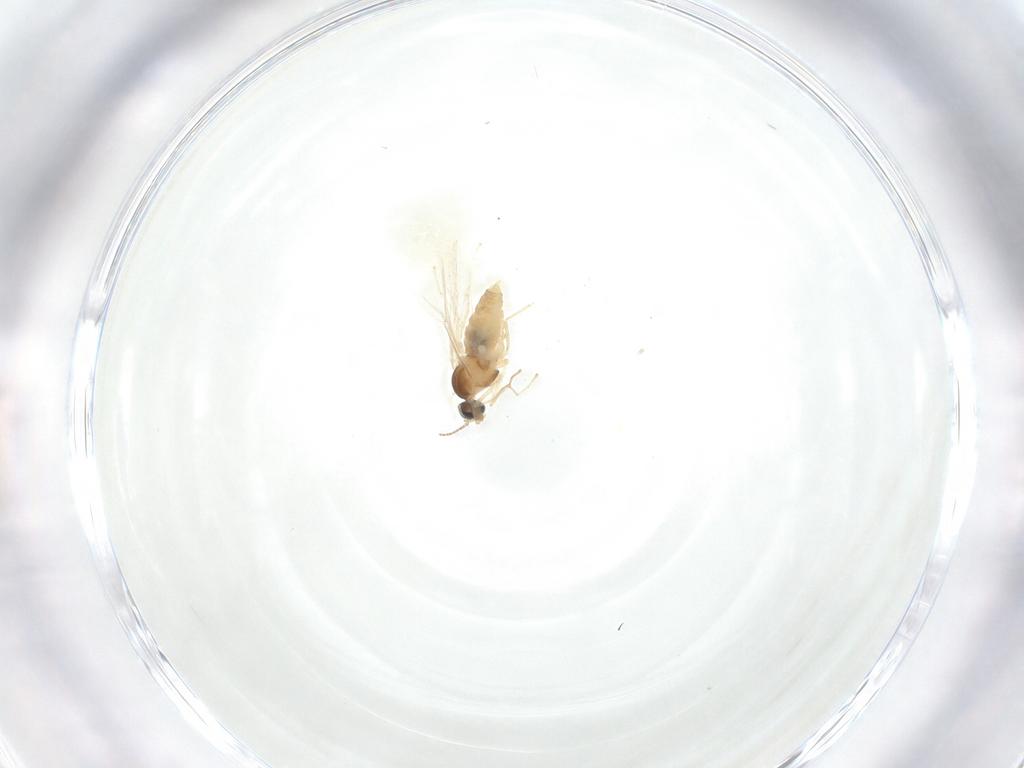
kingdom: Animalia
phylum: Arthropoda
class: Insecta
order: Diptera
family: Cecidomyiidae
